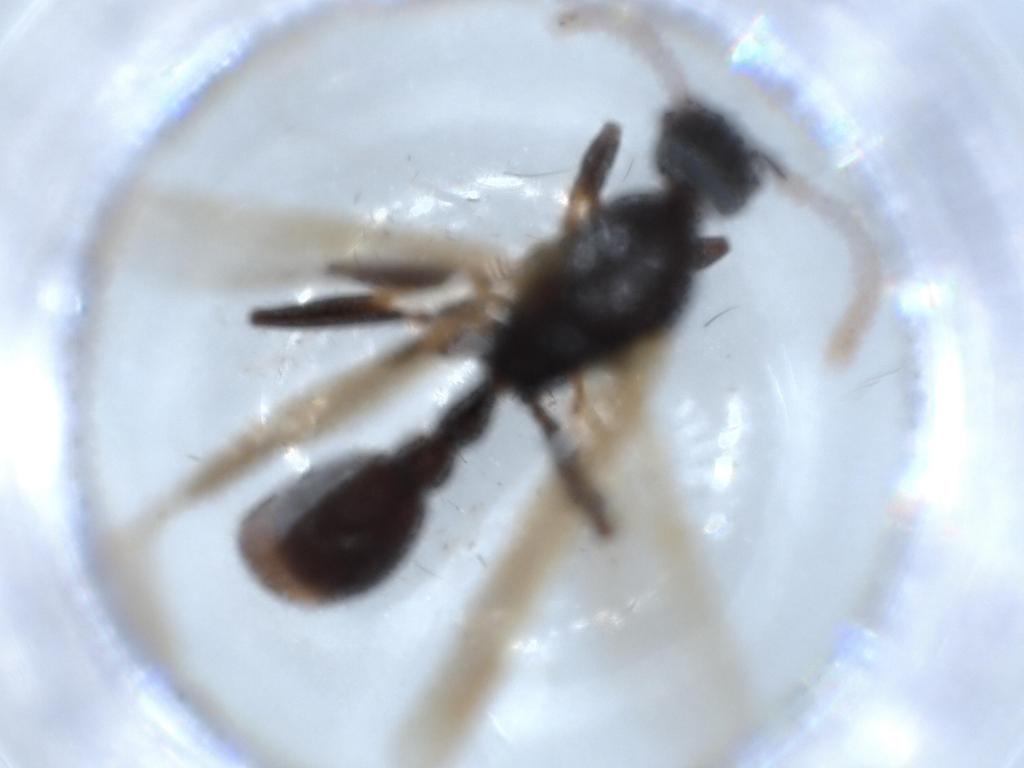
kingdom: Animalia
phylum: Arthropoda
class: Insecta
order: Hymenoptera
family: Formicidae
